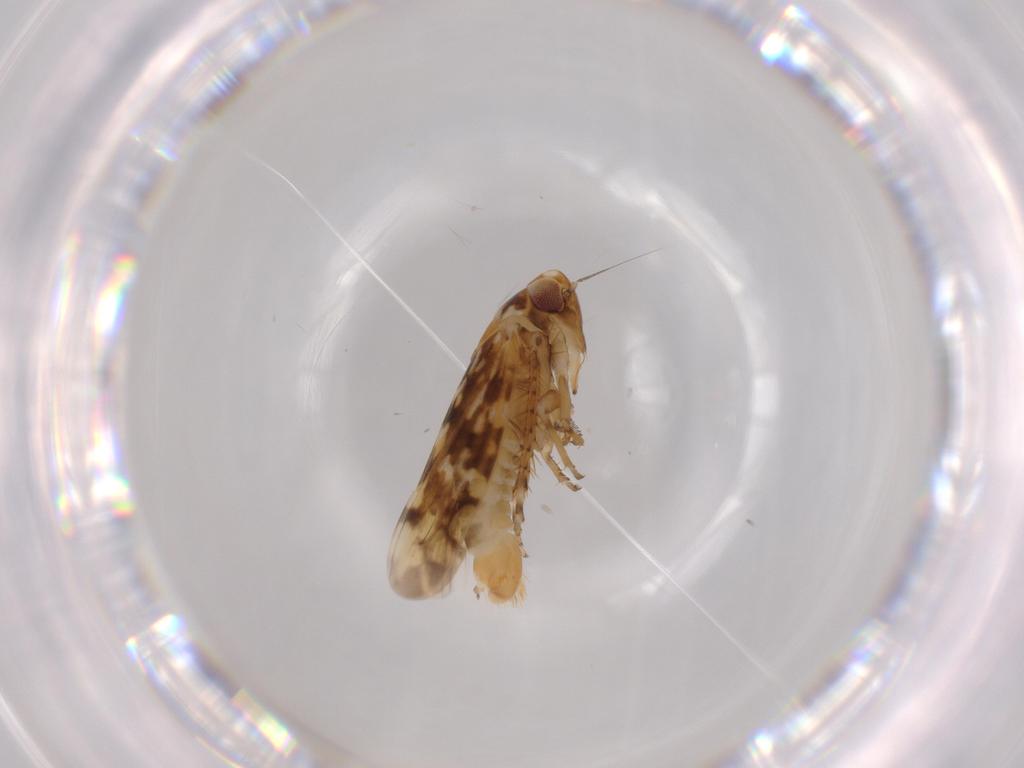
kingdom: Animalia
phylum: Arthropoda
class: Insecta
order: Hemiptera
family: Cicadellidae
